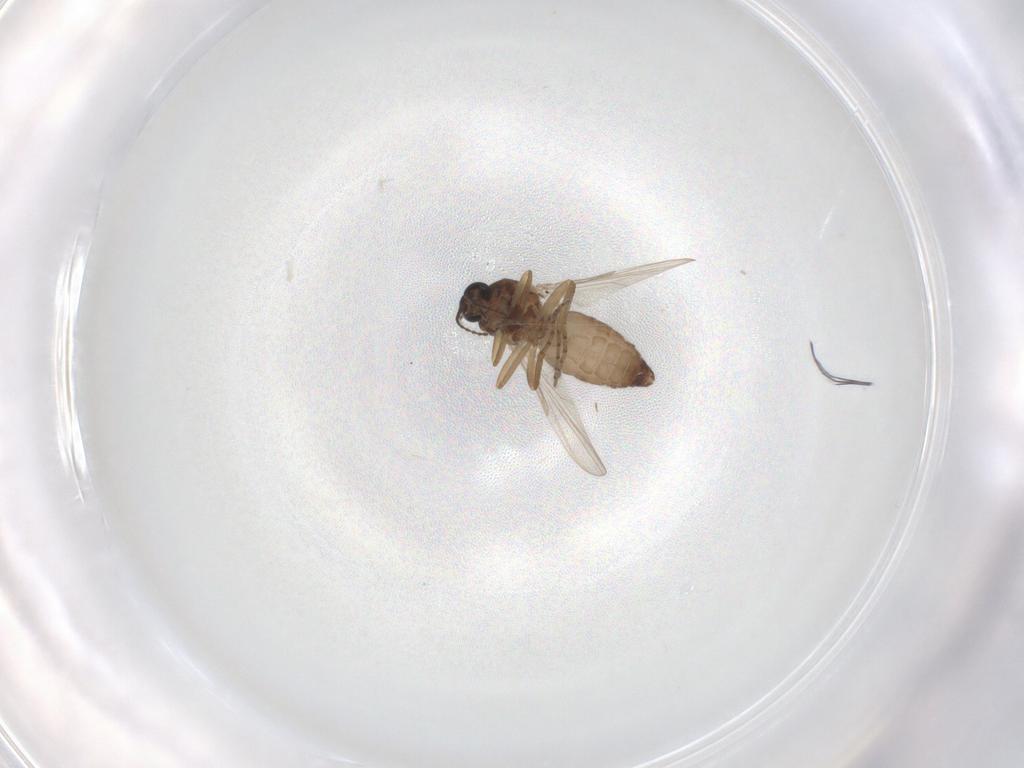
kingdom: Animalia
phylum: Arthropoda
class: Insecta
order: Diptera
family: Ceratopogonidae
